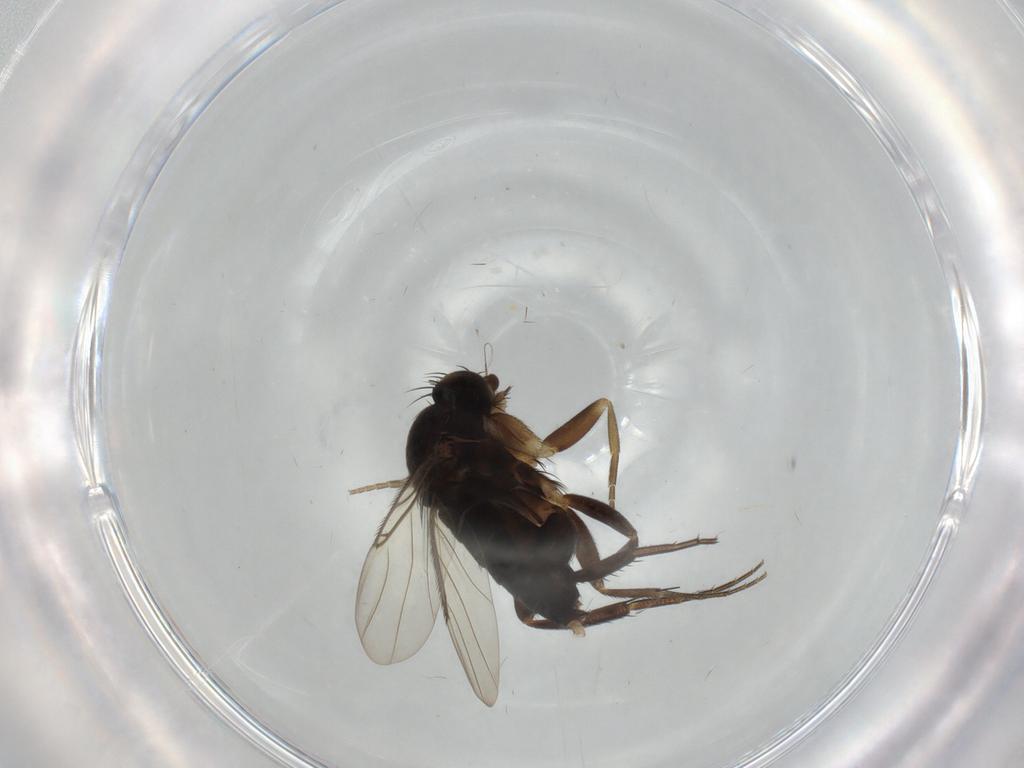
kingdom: Animalia
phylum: Arthropoda
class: Insecta
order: Diptera
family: Phoridae
